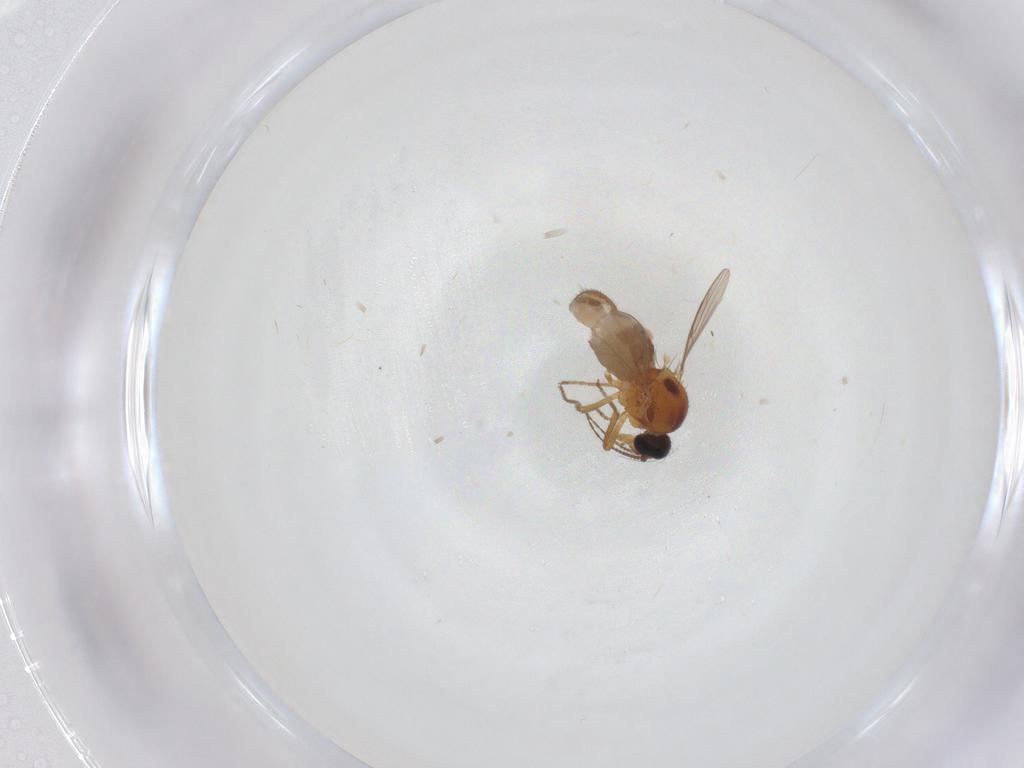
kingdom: Animalia
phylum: Arthropoda
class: Insecta
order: Diptera
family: Ceratopogonidae
